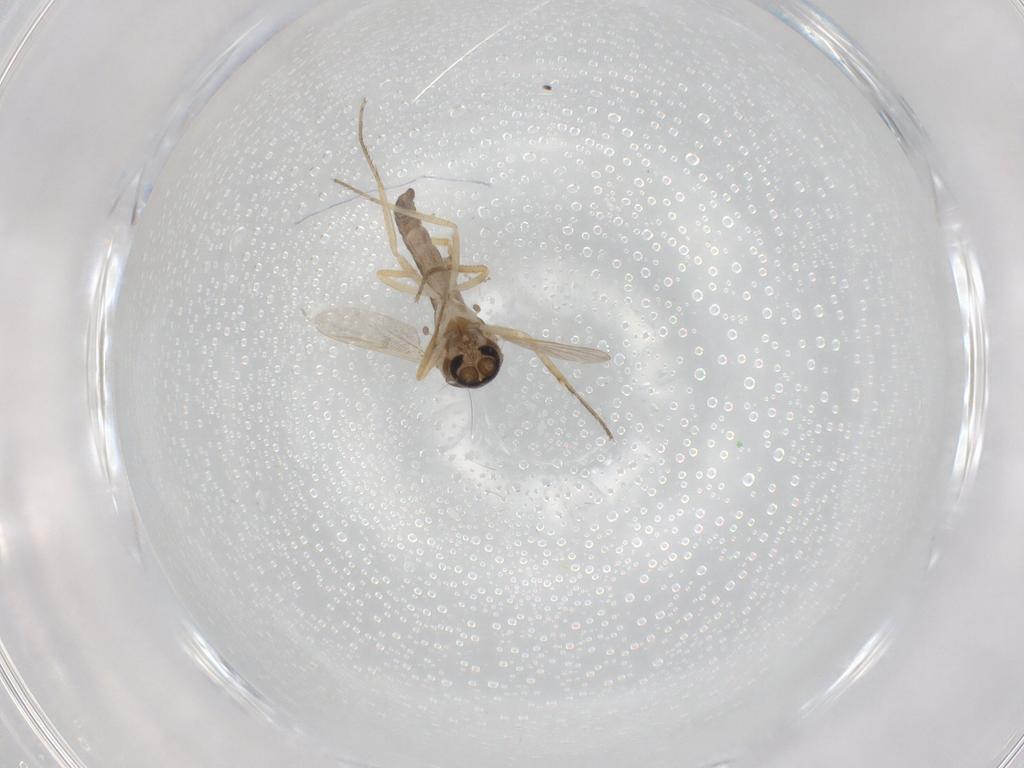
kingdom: Animalia
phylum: Arthropoda
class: Insecta
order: Diptera
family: Ceratopogonidae
